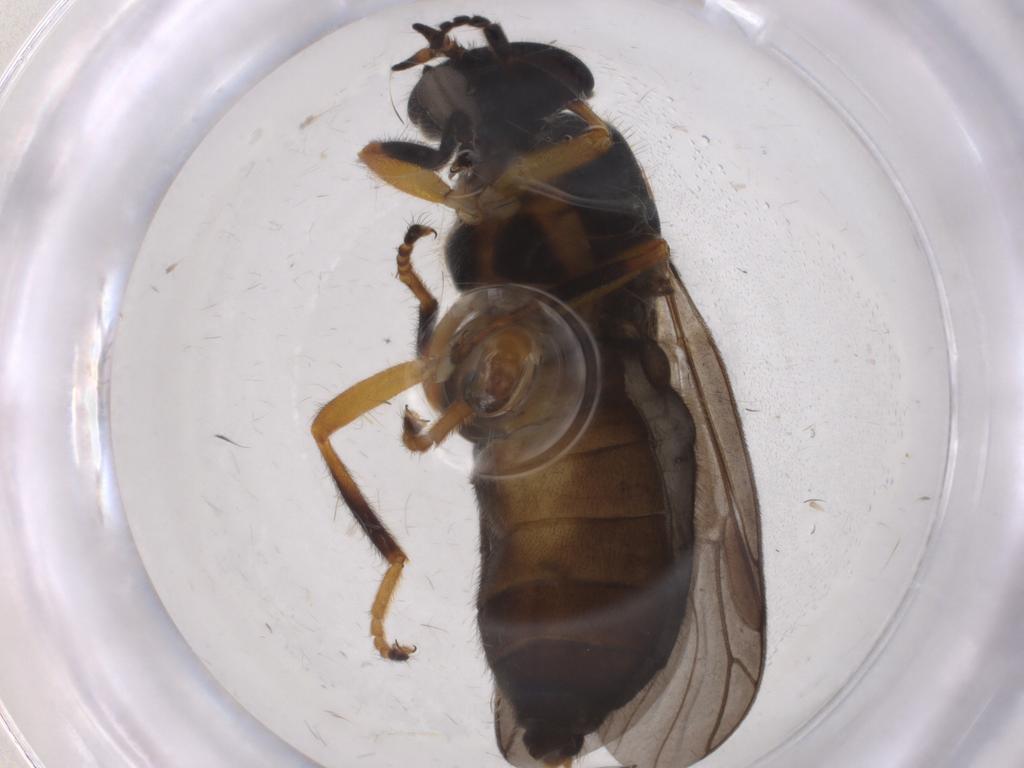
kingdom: Animalia
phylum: Arthropoda
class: Insecta
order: Diptera
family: Stratiomyidae
